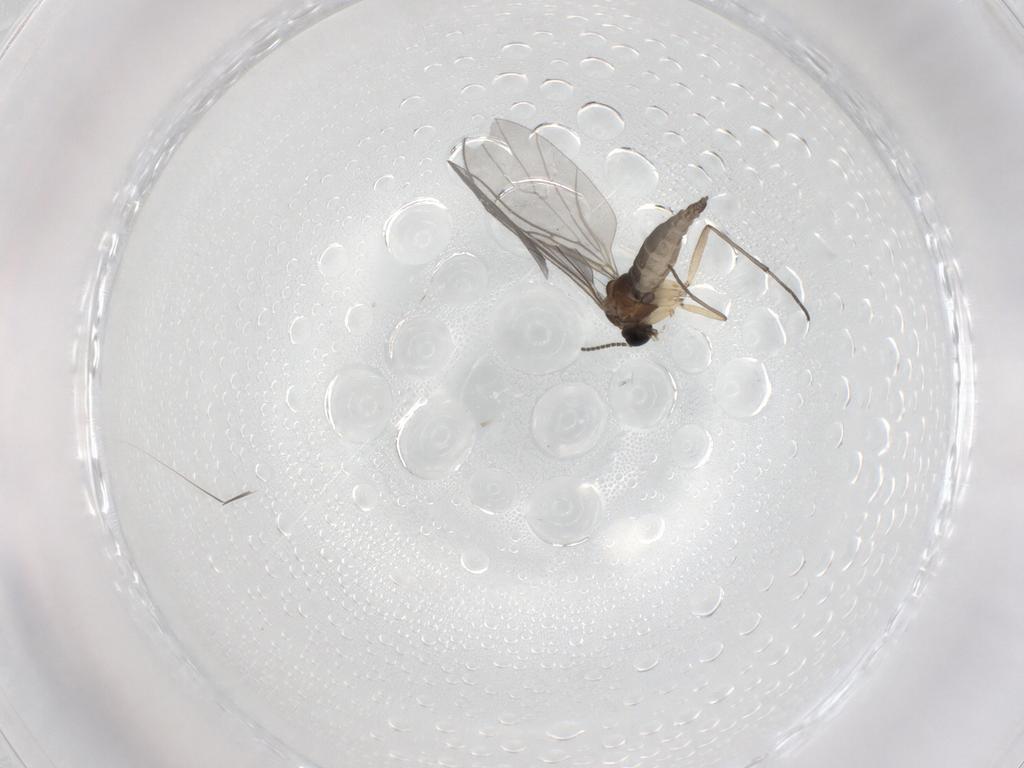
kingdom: Animalia
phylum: Arthropoda
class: Insecta
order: Diptera
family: Sciaridae
